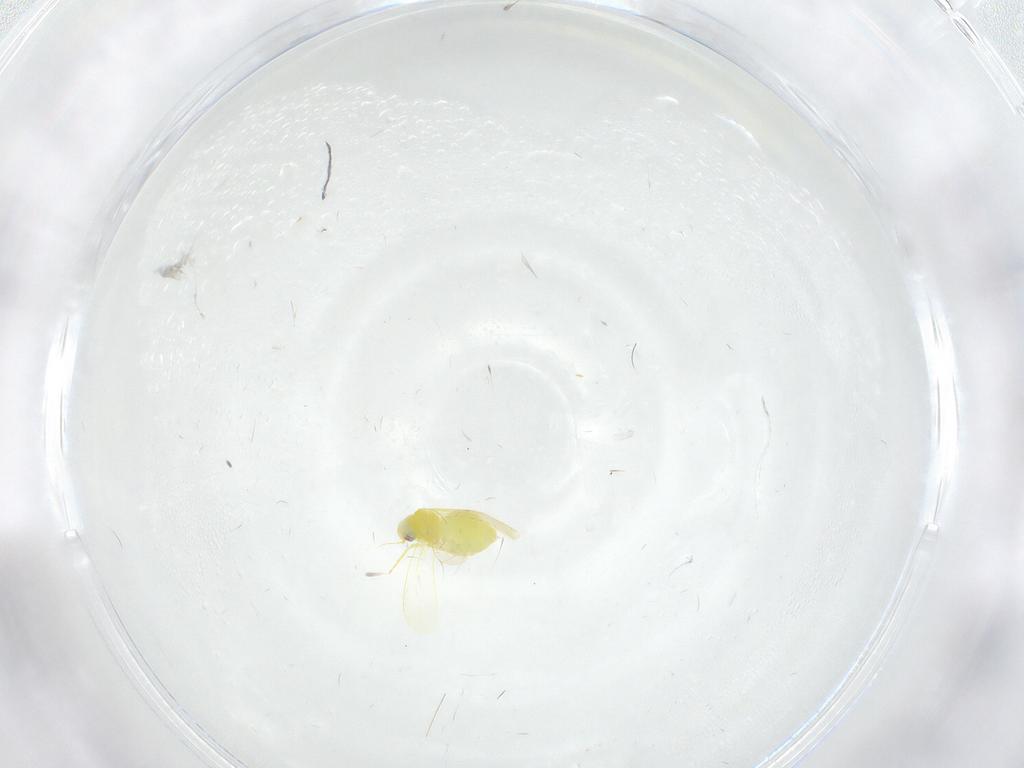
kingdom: Animalia
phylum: Arthropoda
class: Insecta
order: Hemiptera
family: Aleyrodidae
